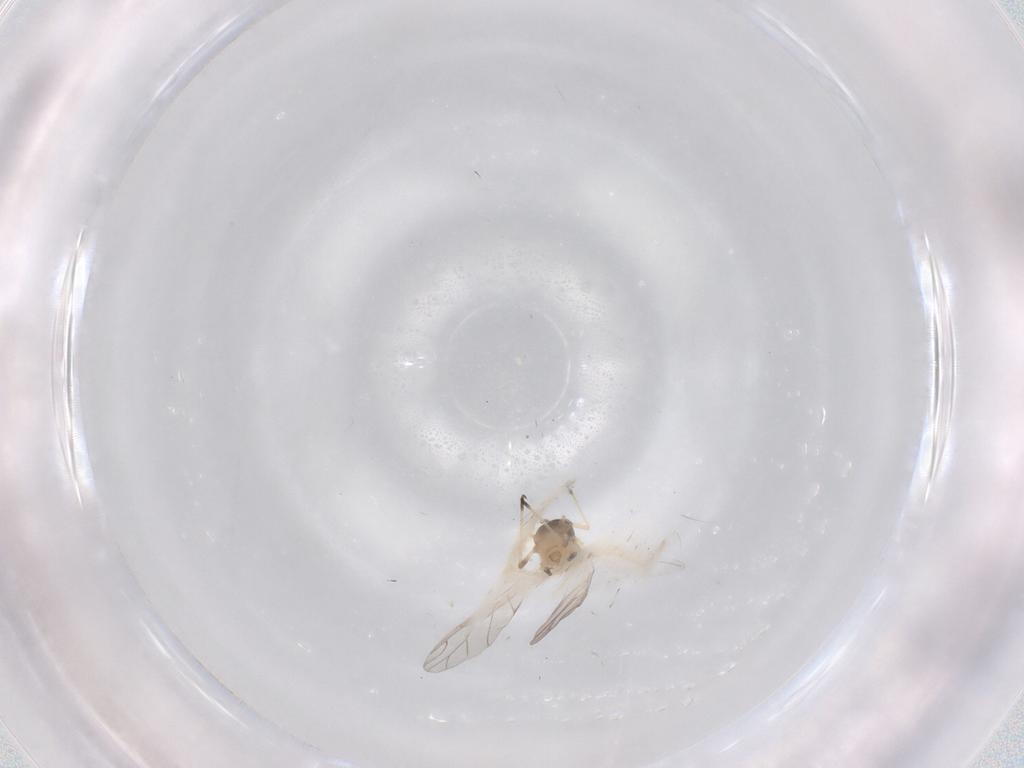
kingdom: Animalia
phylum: Arthropoda
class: Insecta
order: Hemiptera
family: Aphididae
